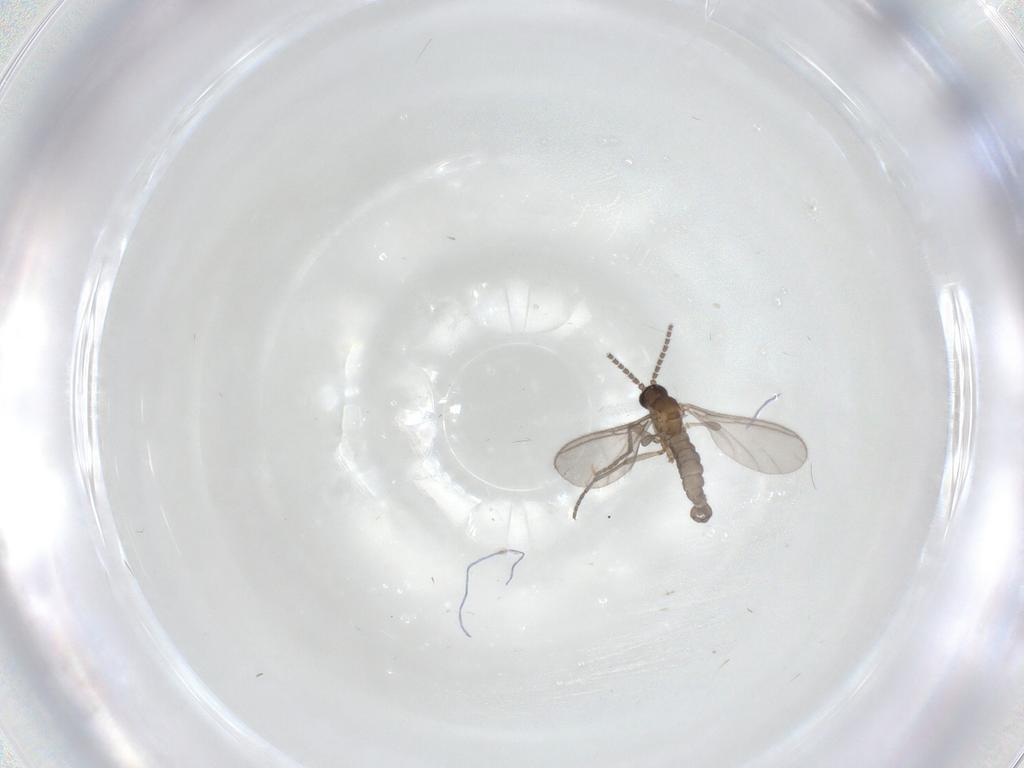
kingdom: Animalia
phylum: Arthropoda
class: Insecta
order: Diptera
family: Sciaridae
